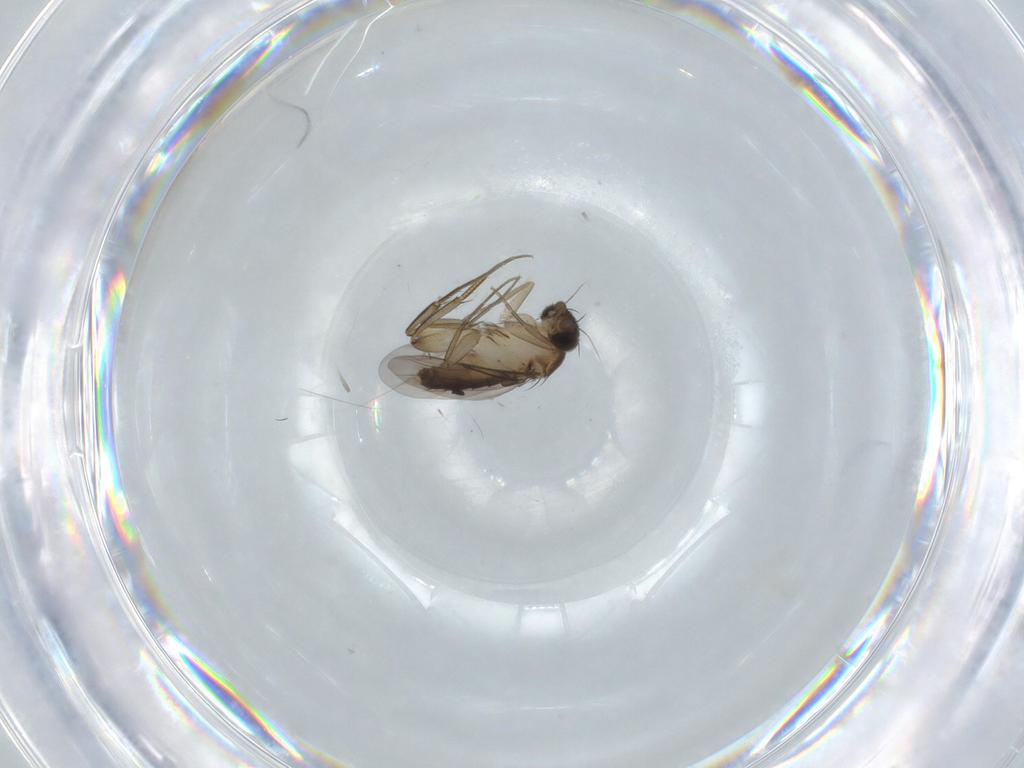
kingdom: Animalia
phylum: Arthropoda
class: Insecta
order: Diptera
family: Phoridae
